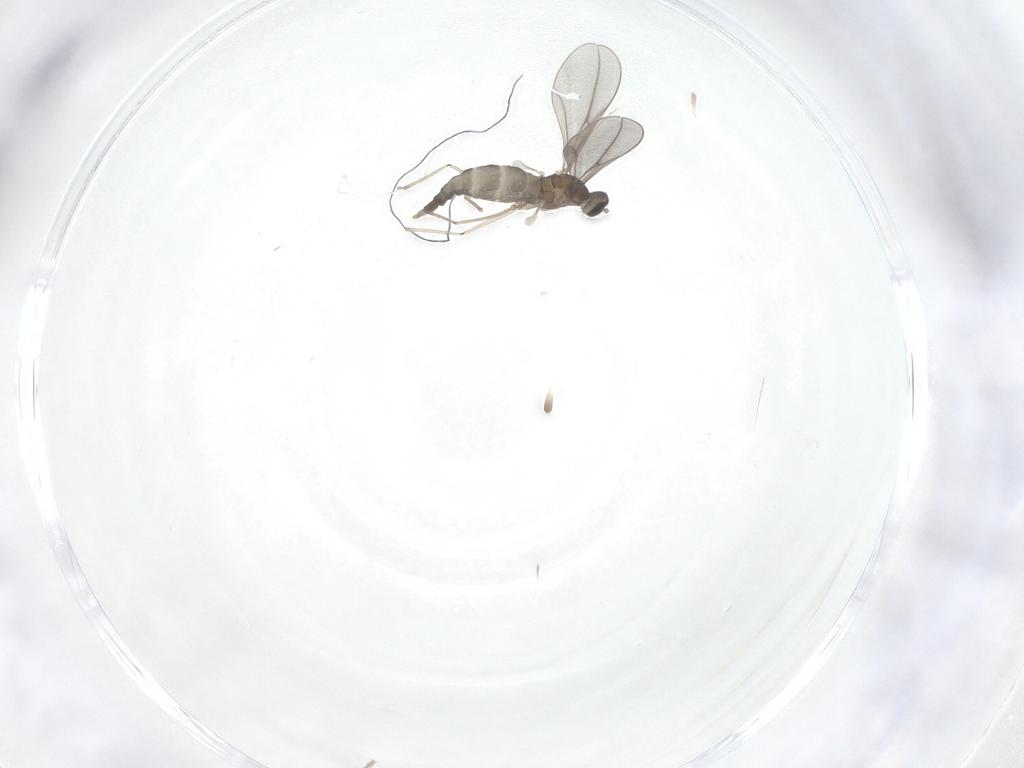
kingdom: Animalia
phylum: Arthropoda
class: Insecta
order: Diptera
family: Cecidomyiidae
